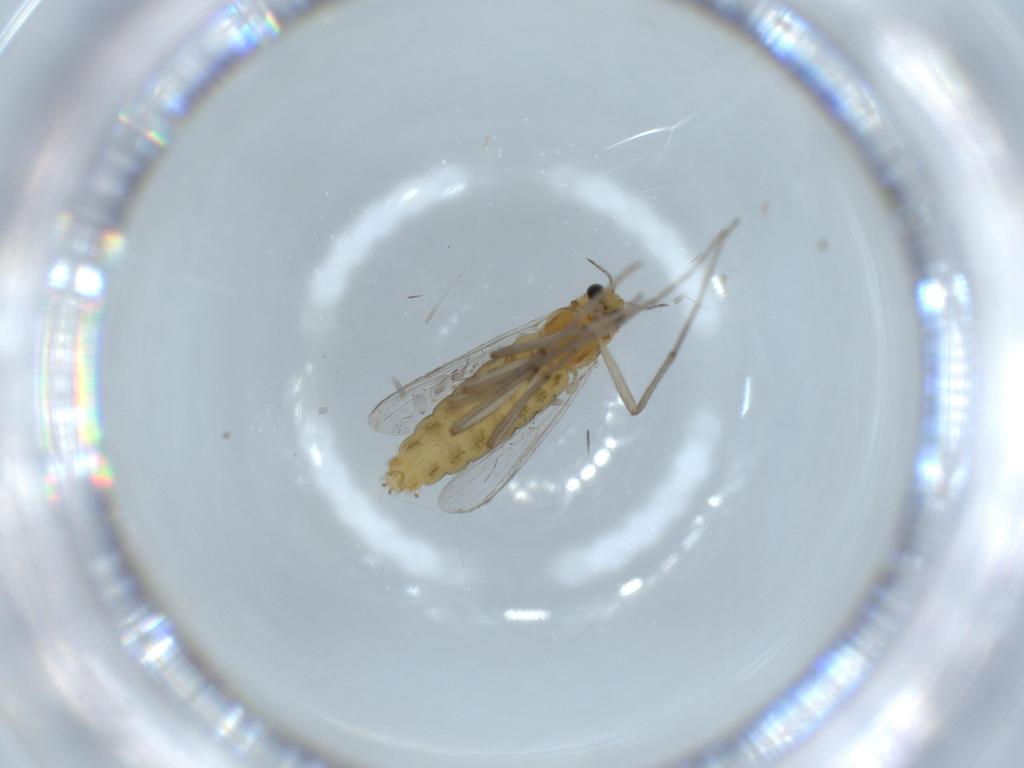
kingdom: Animalia
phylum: Arthropoda
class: Insecta
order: Diptera
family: Chironomidae
